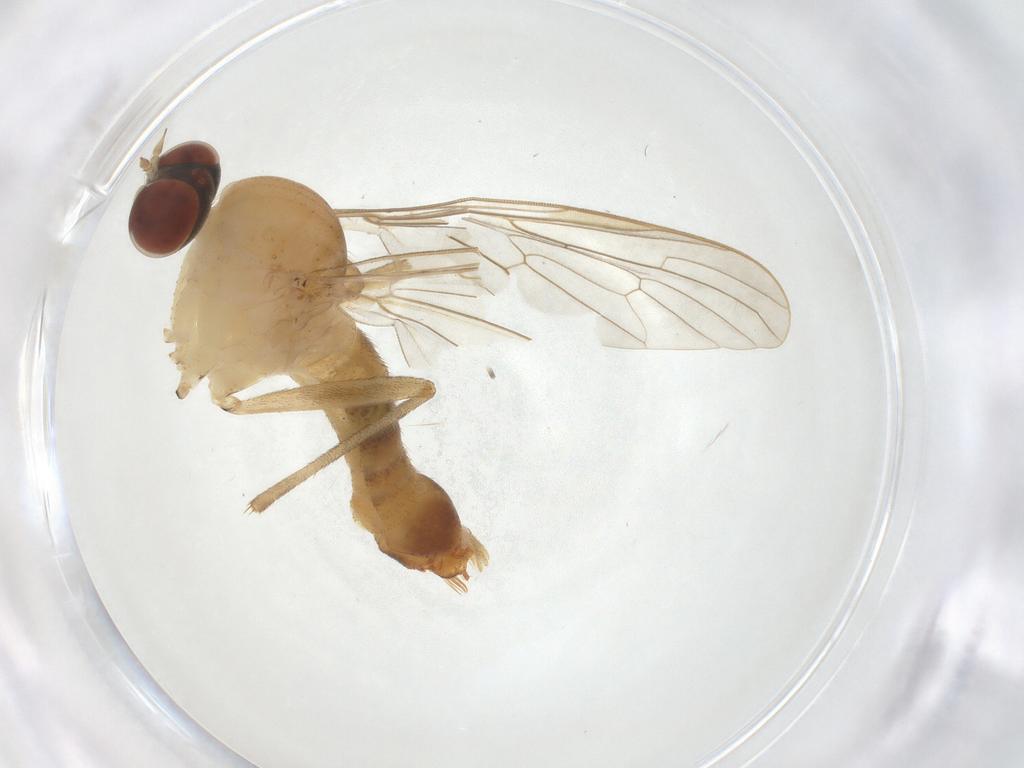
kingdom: Animalia
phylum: Arthropoda
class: Insecta
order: Diptera
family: Apsilocephalidae
